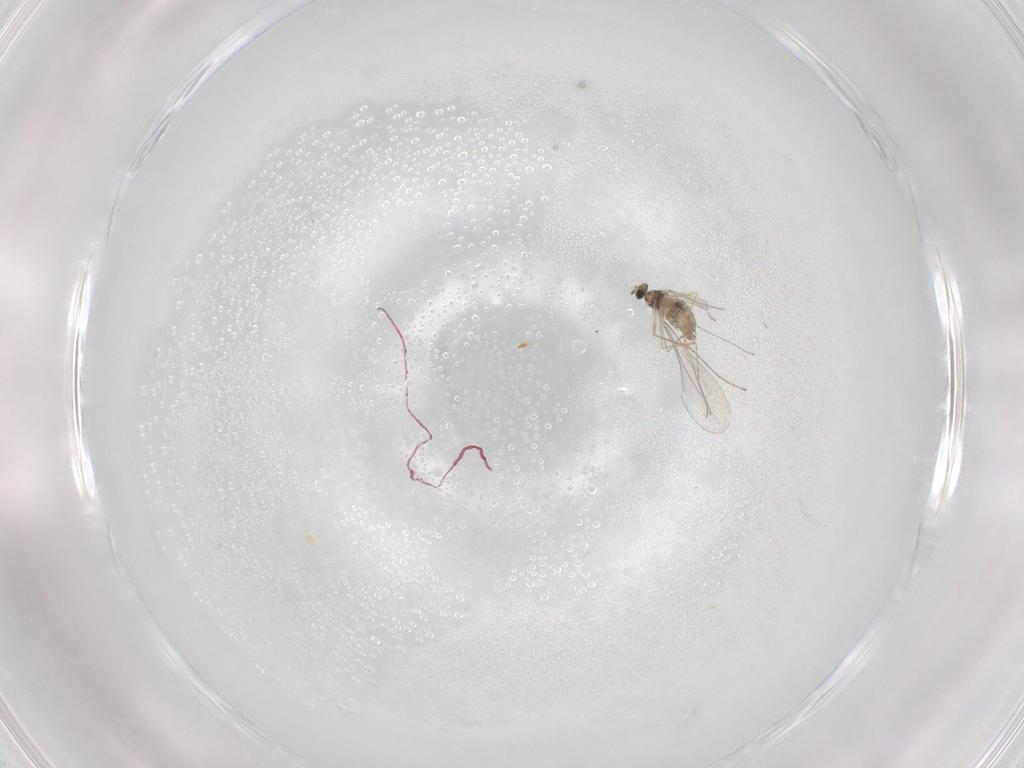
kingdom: Animalia
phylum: Arthropoda
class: Insecta
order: Diptera
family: Cecidomyiidae
